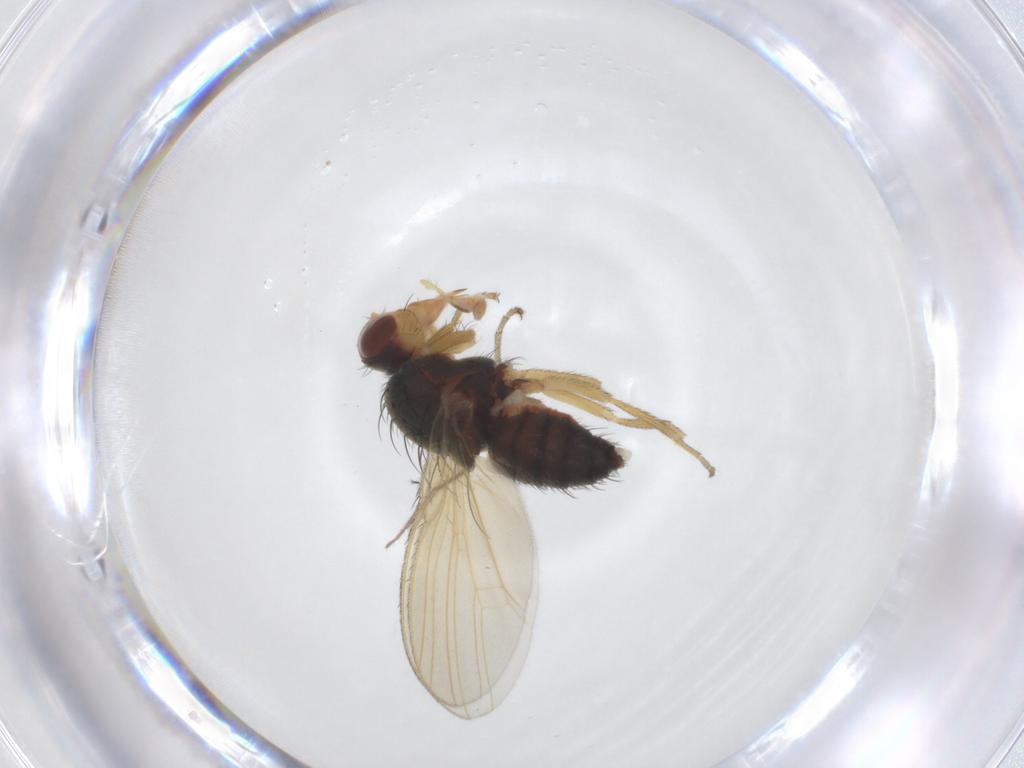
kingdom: Animalia
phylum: Arthropoda
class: Insecta
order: Diptera
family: Heleomyzidae
